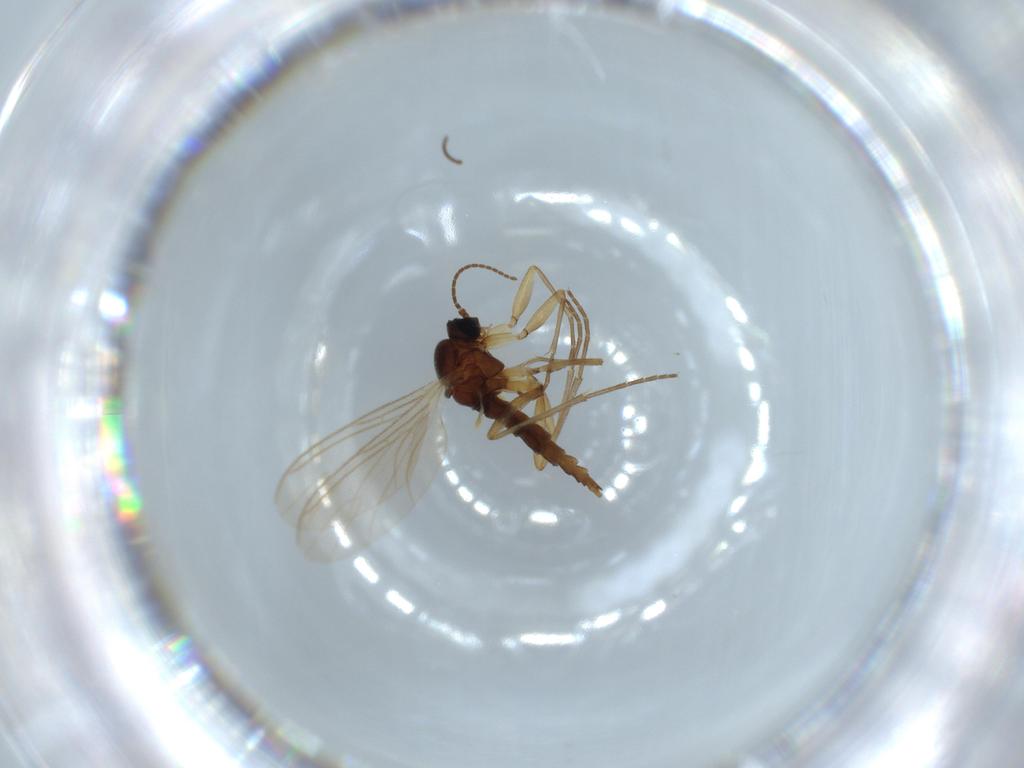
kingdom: Animalia
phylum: Arthropoda
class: Insecta
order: Diptera
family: Sciaridae
